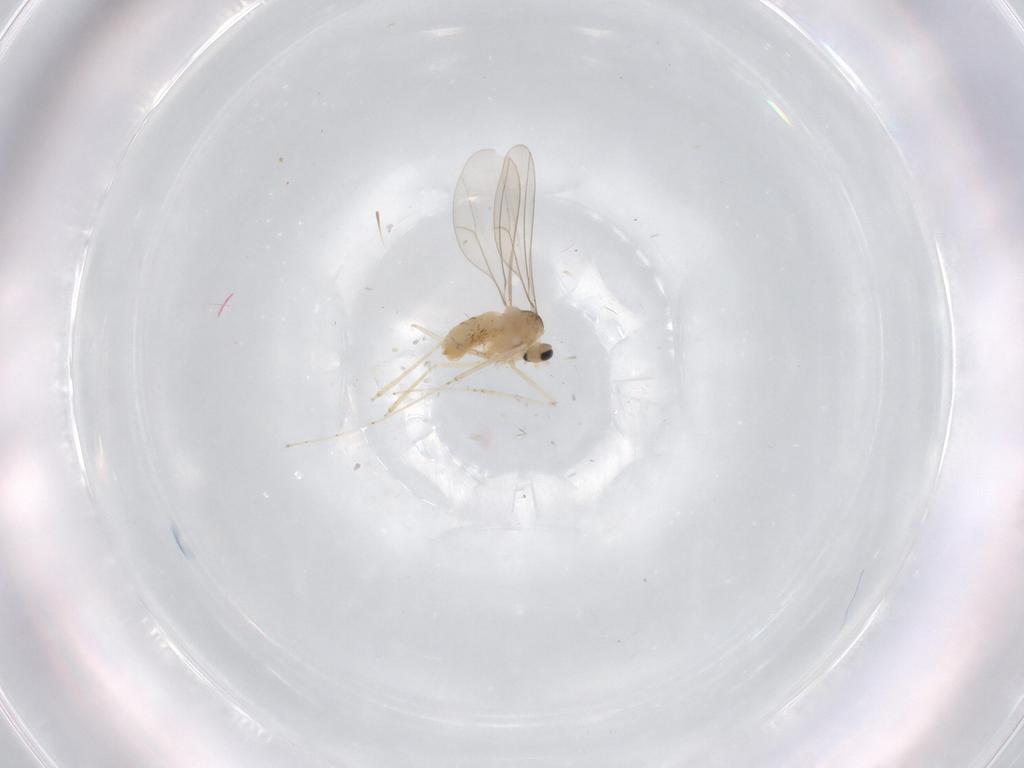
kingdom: Animalia
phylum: Arthropoda
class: Insecta
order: Diptera
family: Cecidomyiidae
